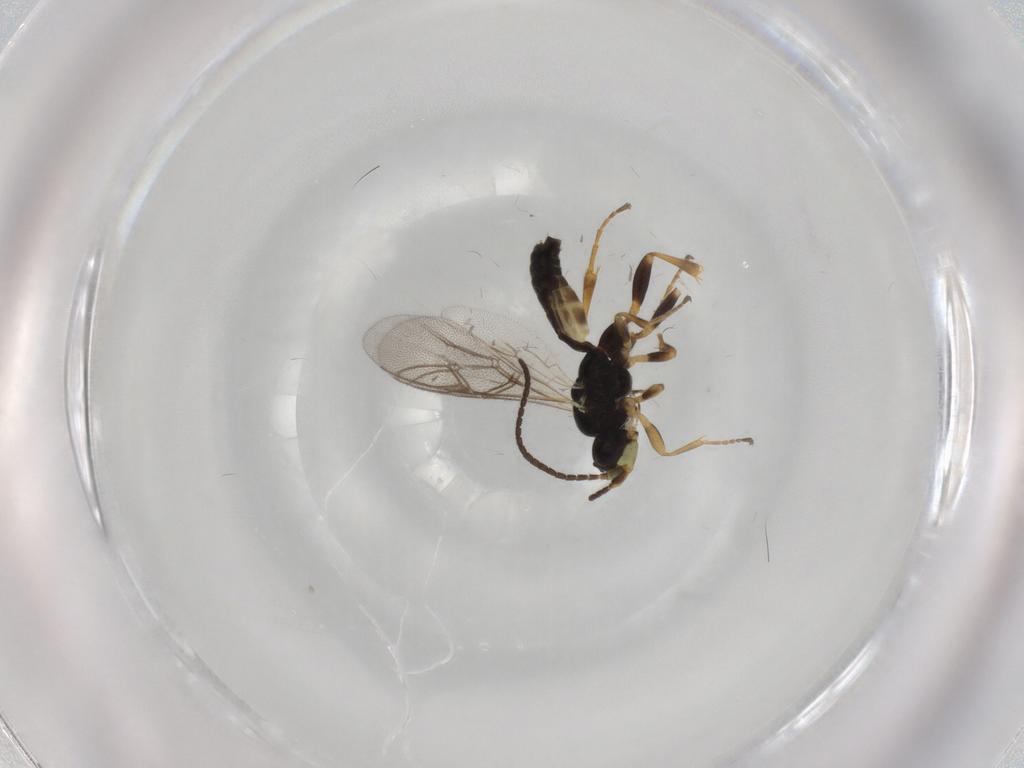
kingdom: Animalia
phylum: Arthropoda
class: Insecta
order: Hymenoptera
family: Ichneumonidae
